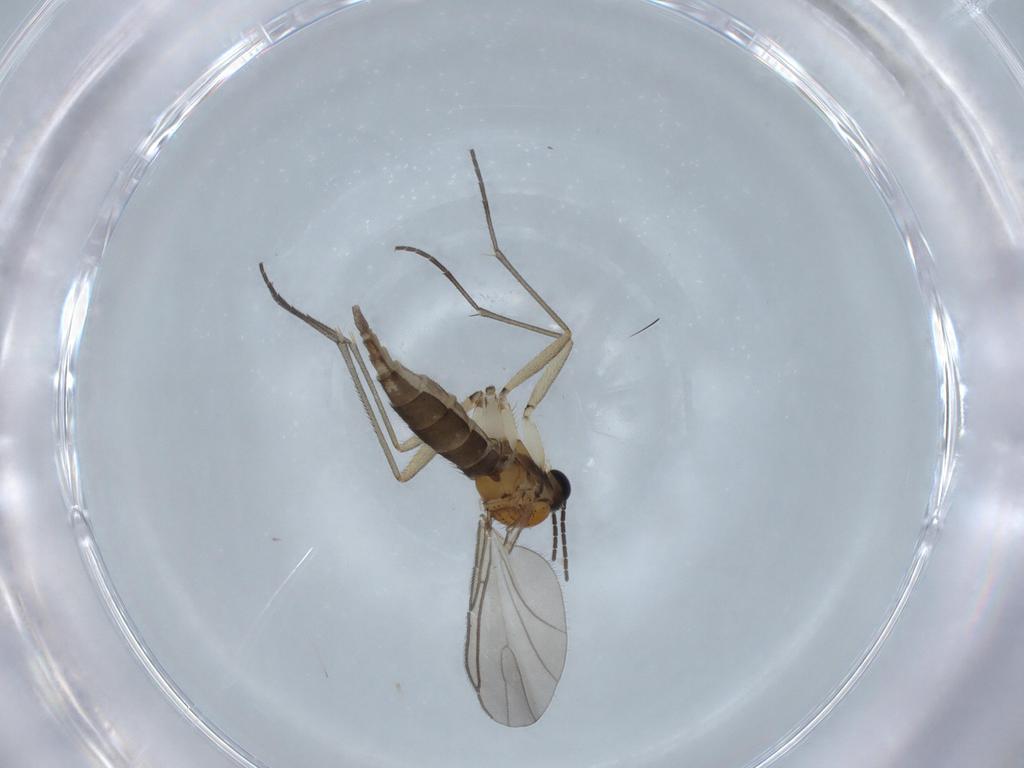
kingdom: Animalia
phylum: Arthropoda
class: Insecta
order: Diptera
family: Sciaridae
